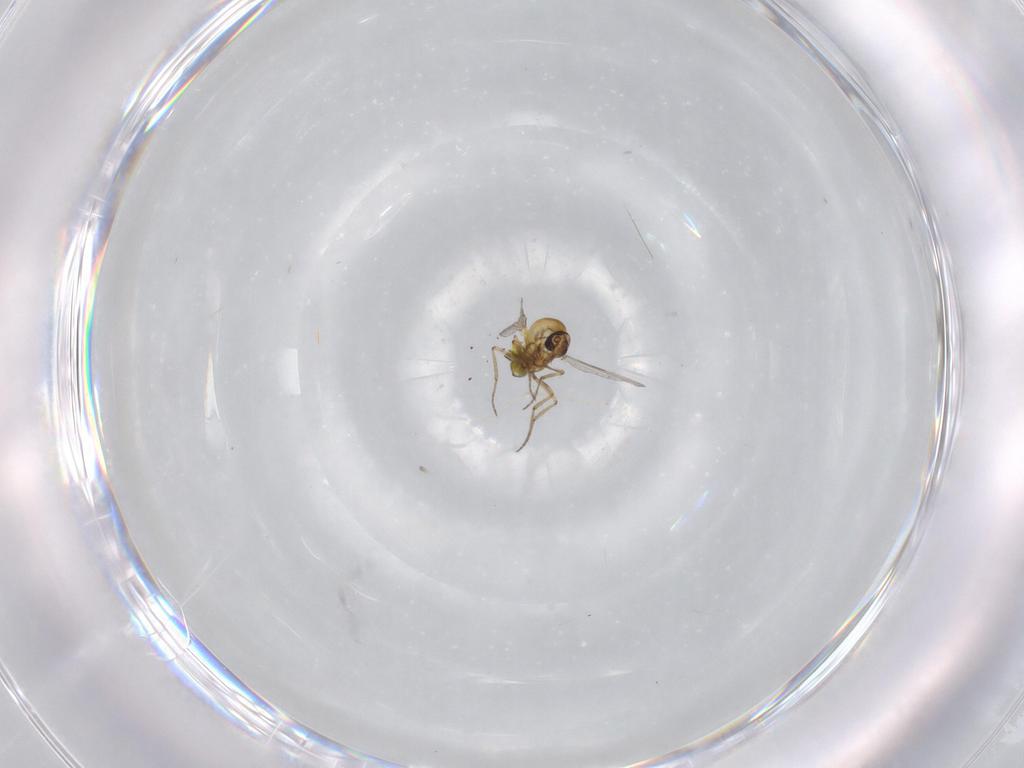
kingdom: Animalia
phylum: Arthropoda
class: Insecta
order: Diptera
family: Ceratopogonidae
